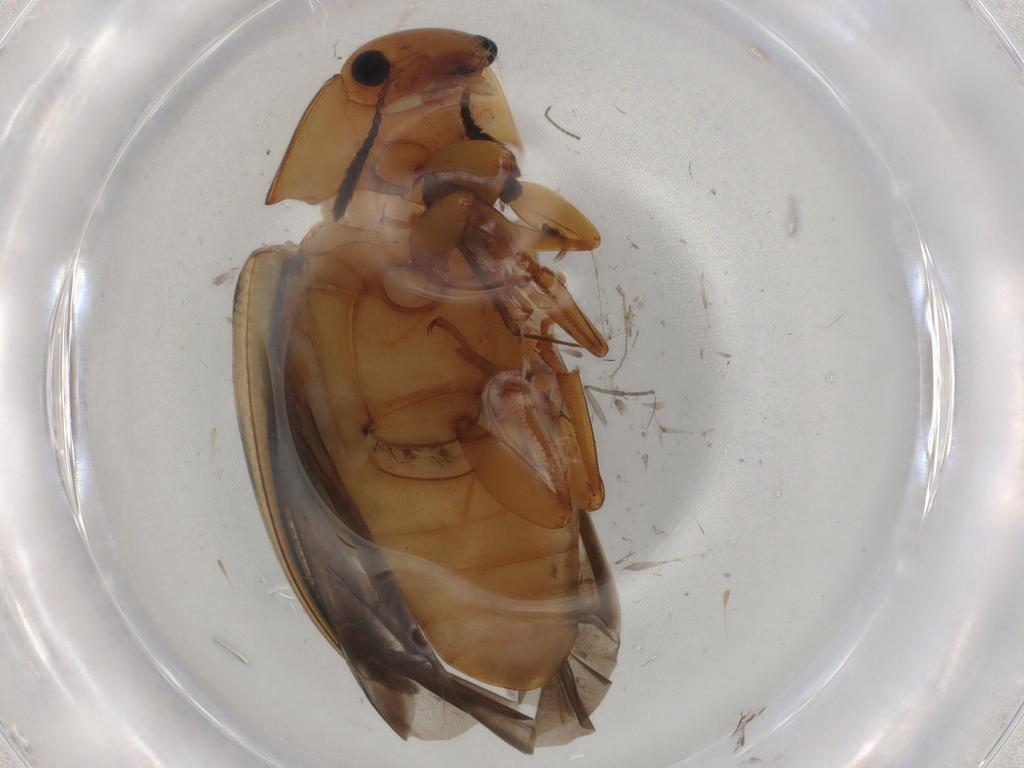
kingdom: Animalia
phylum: Arthropoda
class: Insecta
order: Coleoptera
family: Erotylidae
